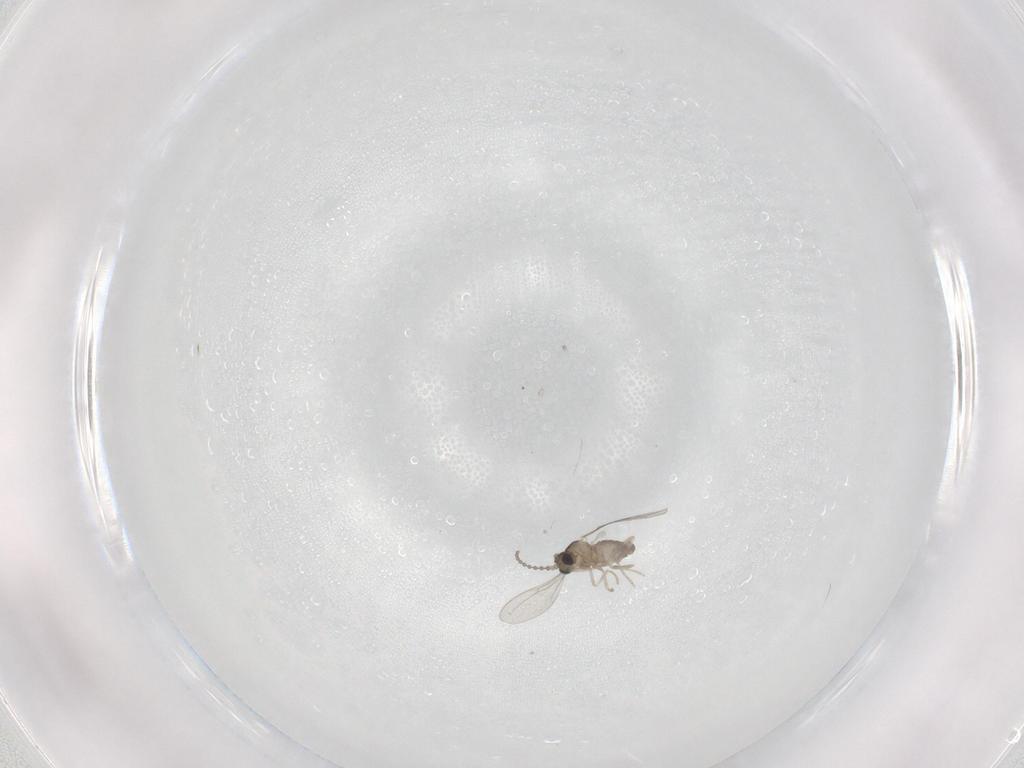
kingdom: Animalia
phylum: Arthropoda
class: Insecta
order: Diptera
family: Cecidomyiidae
